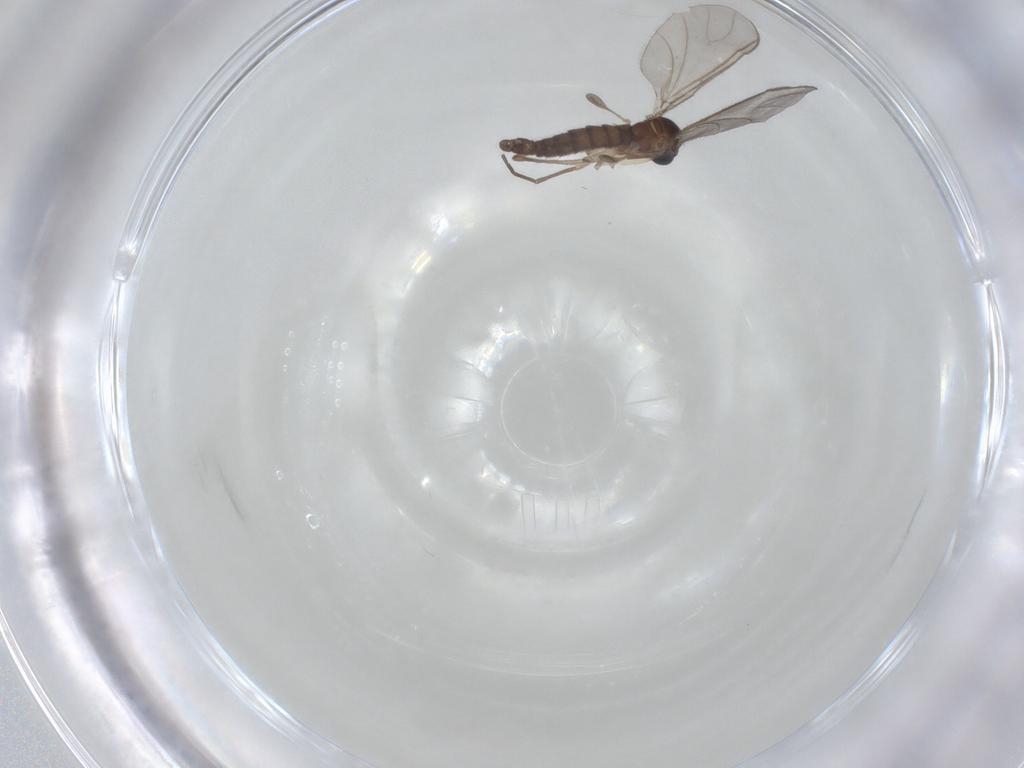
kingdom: Animalia
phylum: Arthropoda
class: Insecta
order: Diptera
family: Sciaridae
